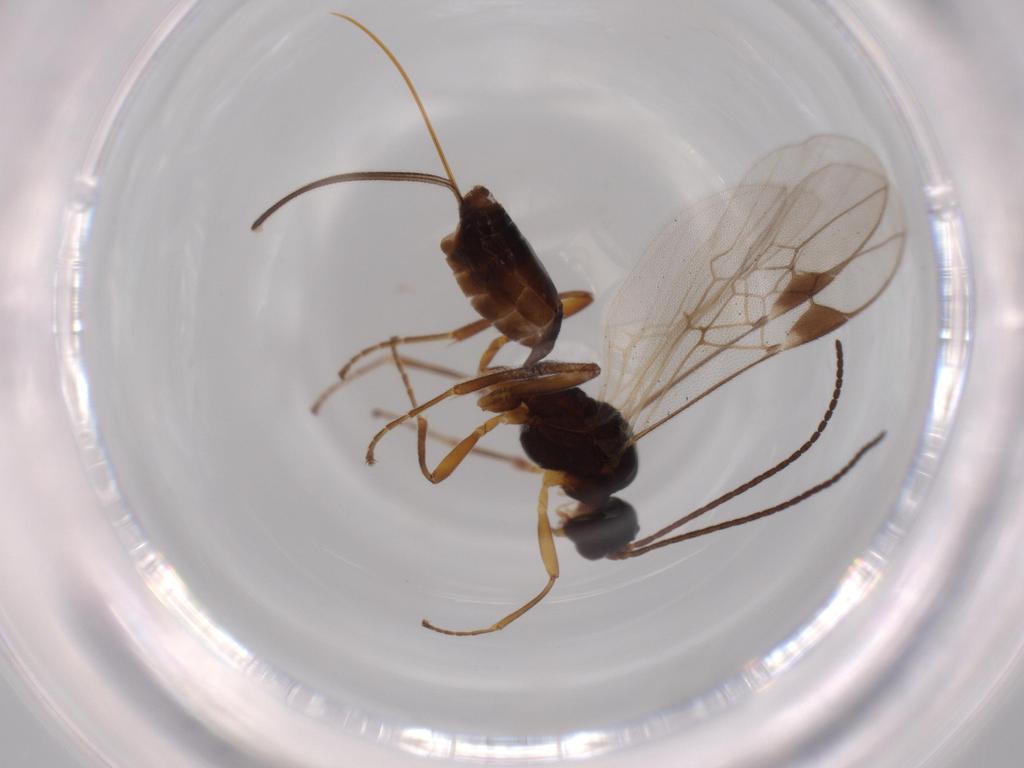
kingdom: Animalia
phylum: Arthropoda
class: Insecta
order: Hymenoptera
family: Braconidae
